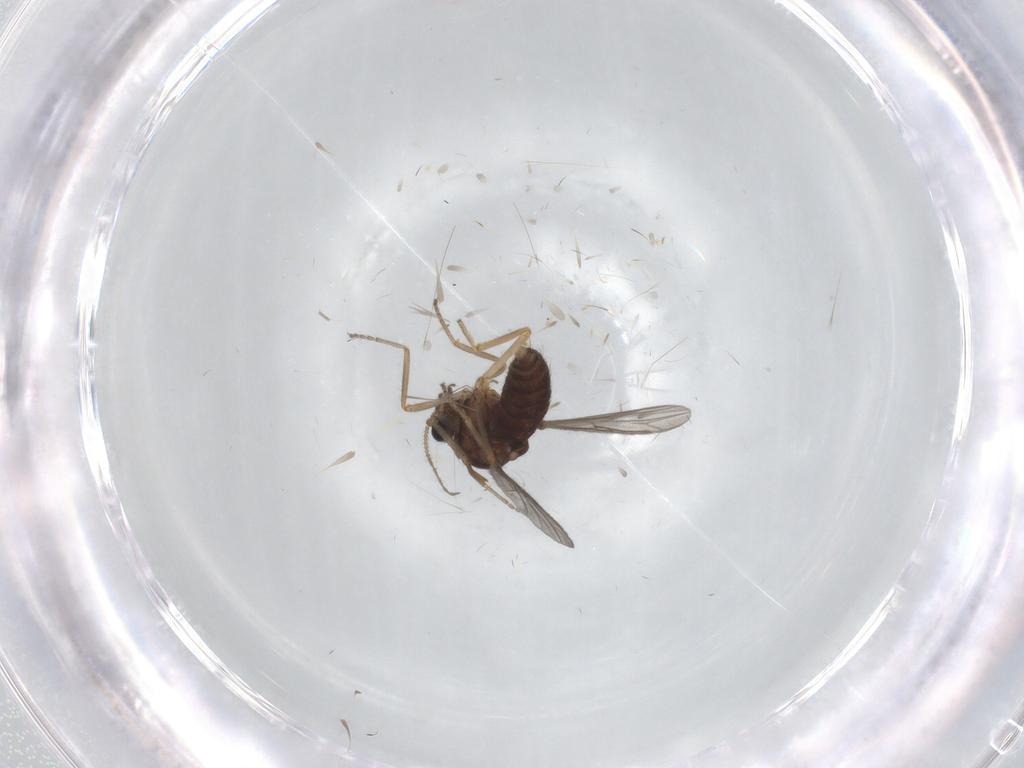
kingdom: Animalia
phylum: Arthropoda
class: Insecta
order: Diptera
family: Ceratopogonidae
